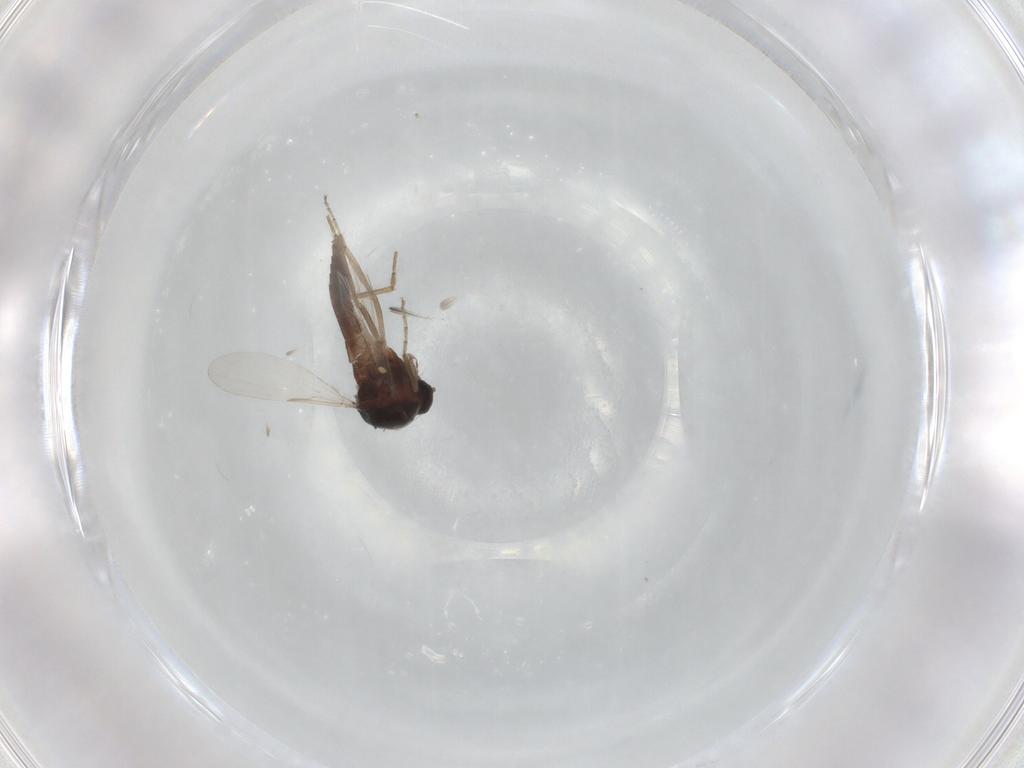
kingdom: Animalia
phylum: Arthropoda
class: Insecta
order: Diptera
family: Ceratopogonidae
